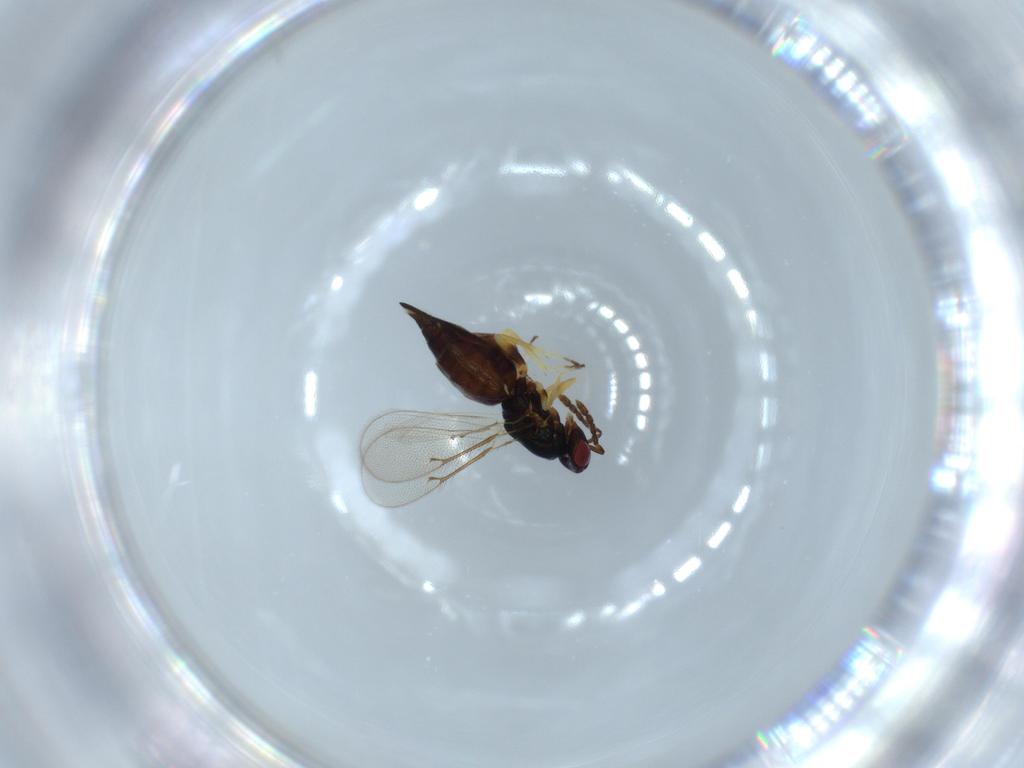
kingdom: Animalia
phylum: Arthropoda
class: Insecta
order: Hymenoptera
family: Eulophidae
